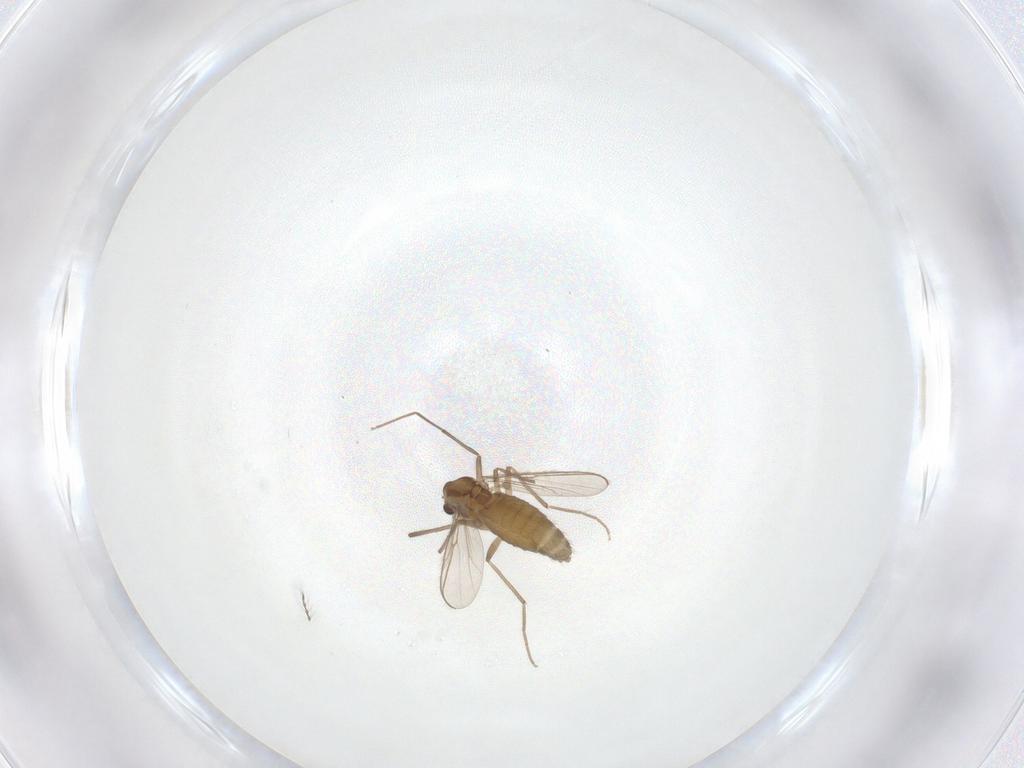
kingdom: Animalia
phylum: Arthropoda
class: Insecta
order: Diptera
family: Chironomidae
